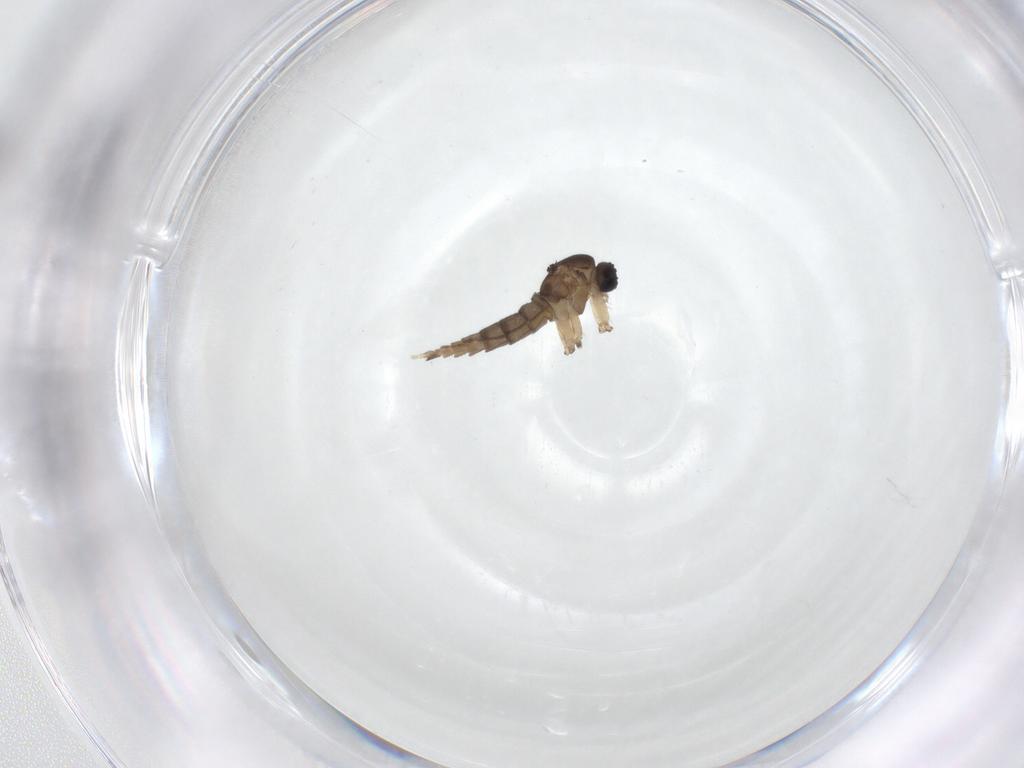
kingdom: Animalia
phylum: Arthropoda
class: Insecta
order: Diptera
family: Sciaridae
